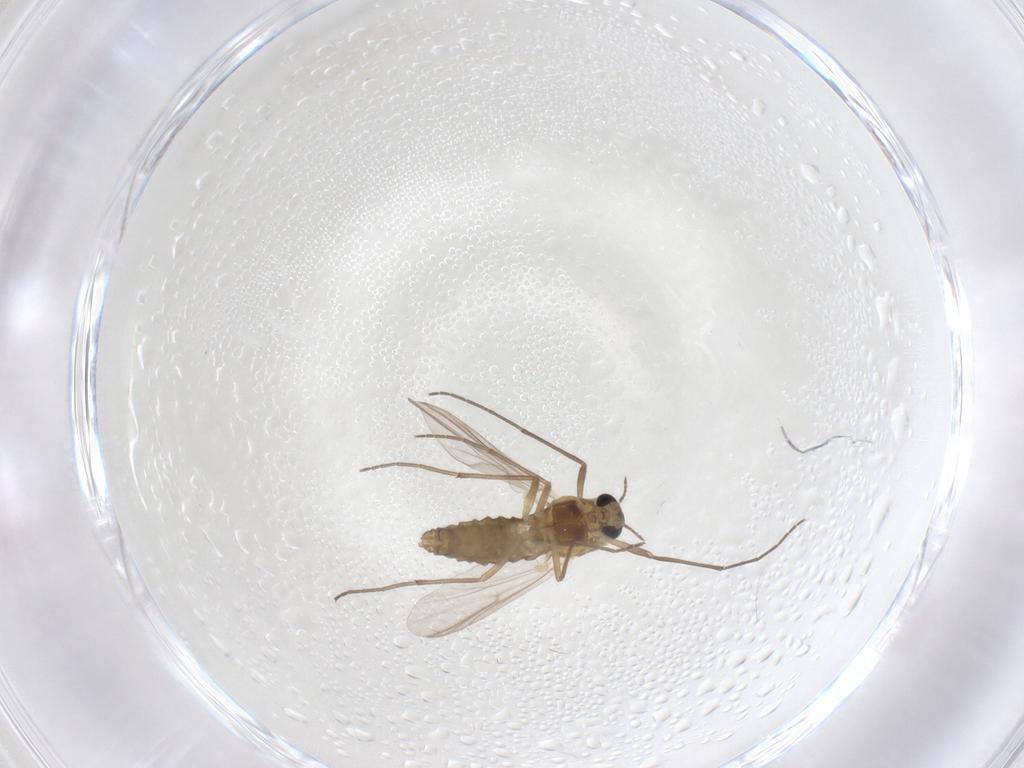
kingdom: Animalia
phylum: Arthropoda
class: Insecta
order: Diptera
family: Chironomidae
